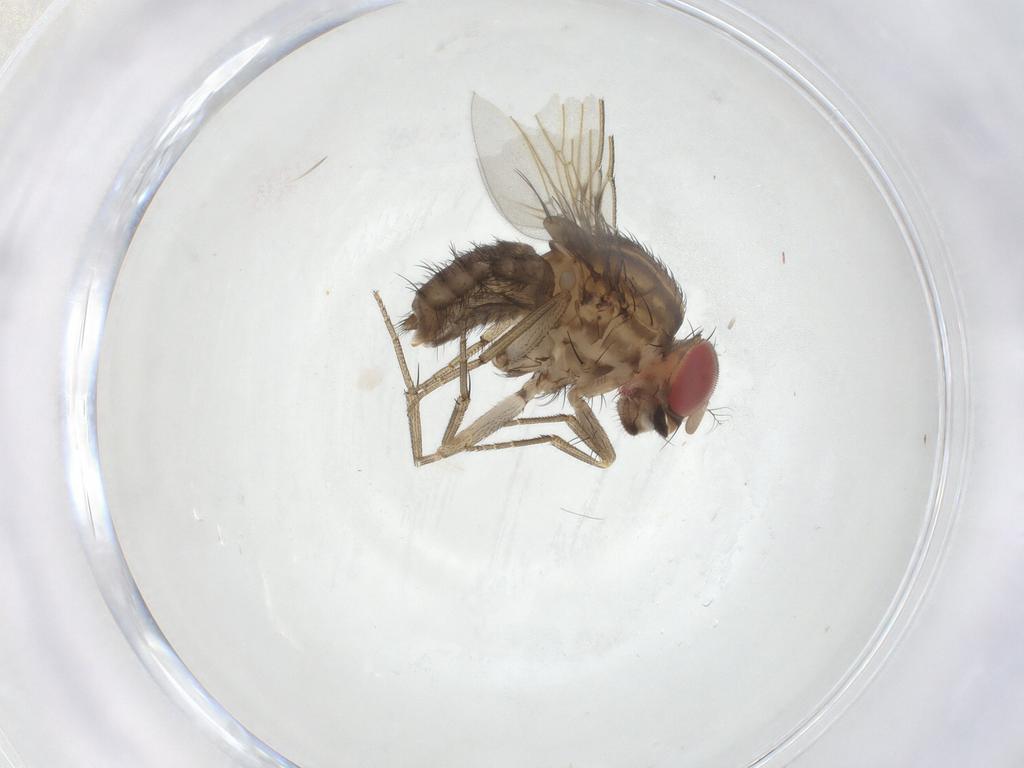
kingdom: Animalia
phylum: Arthropoda
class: Insecta
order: Diptera
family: Drosophilidae
